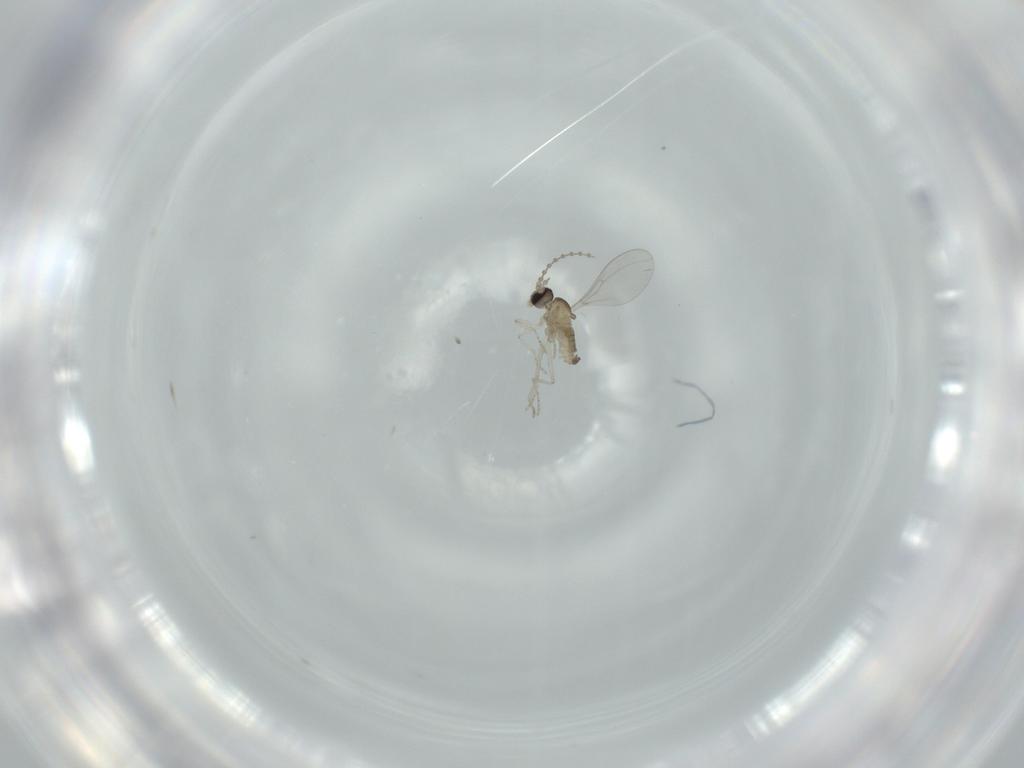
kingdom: Animalia
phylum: Arthropoda
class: Insecta
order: Diptera
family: Cecidomyiidae
